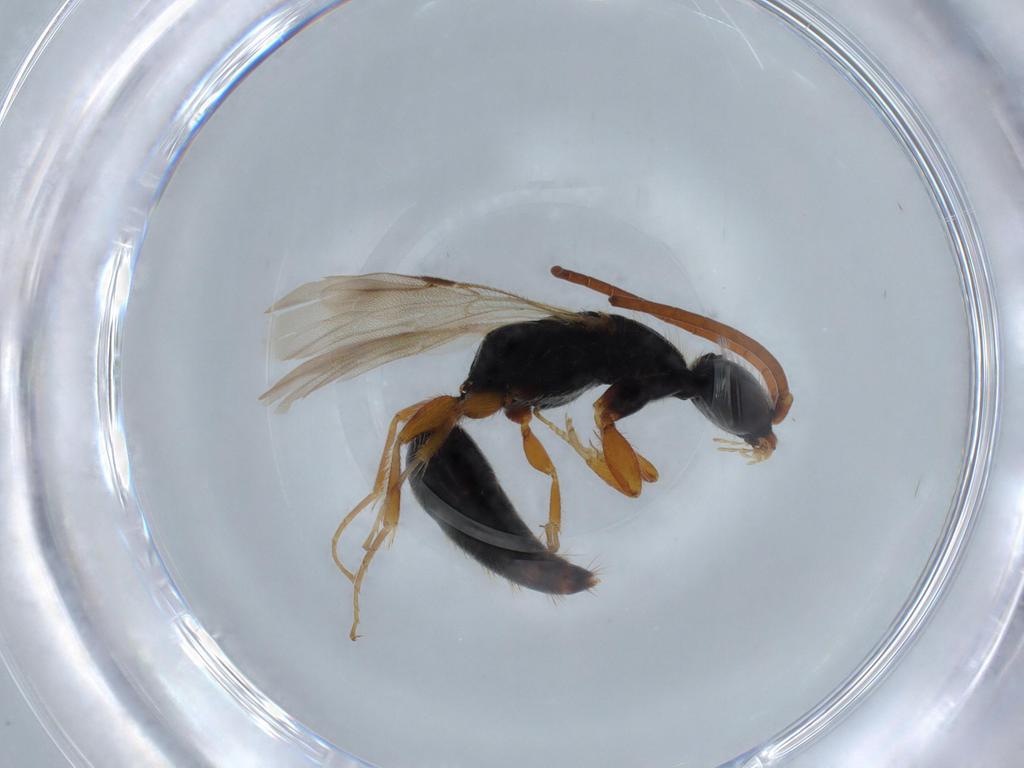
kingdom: Animalia
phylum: Arthropoda
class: Insecta
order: Hymenoptera
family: Bethylidae
